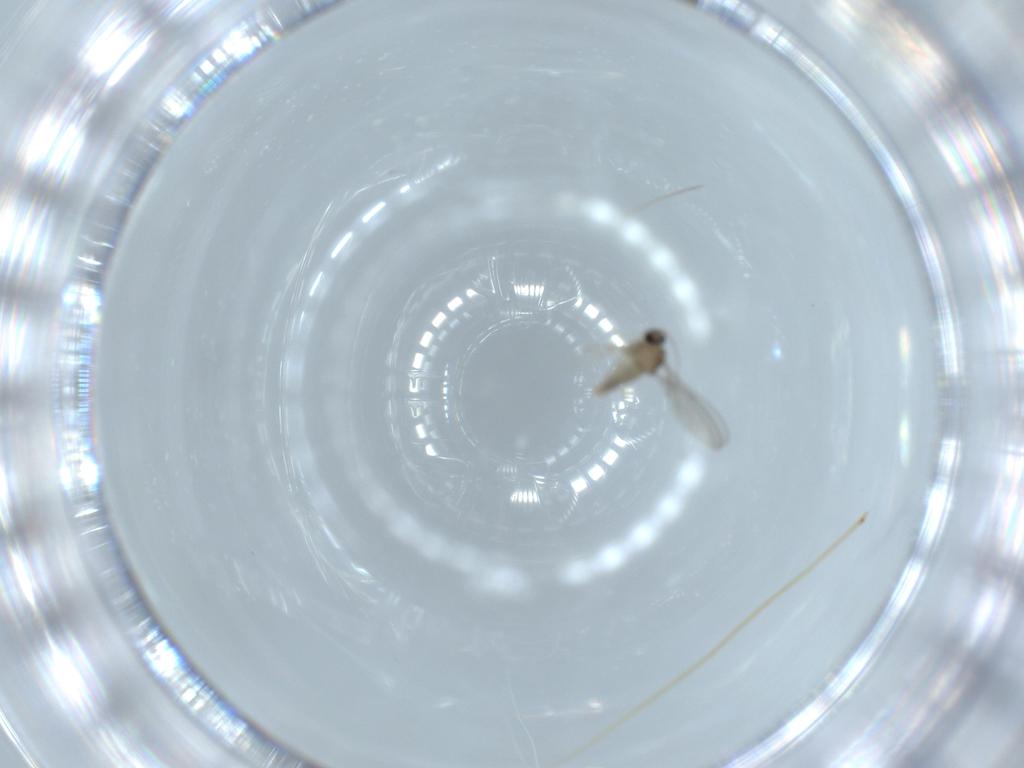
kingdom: Animalia
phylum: Arthropoda
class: Insecta
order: Diptera
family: Cecidomyiidae
